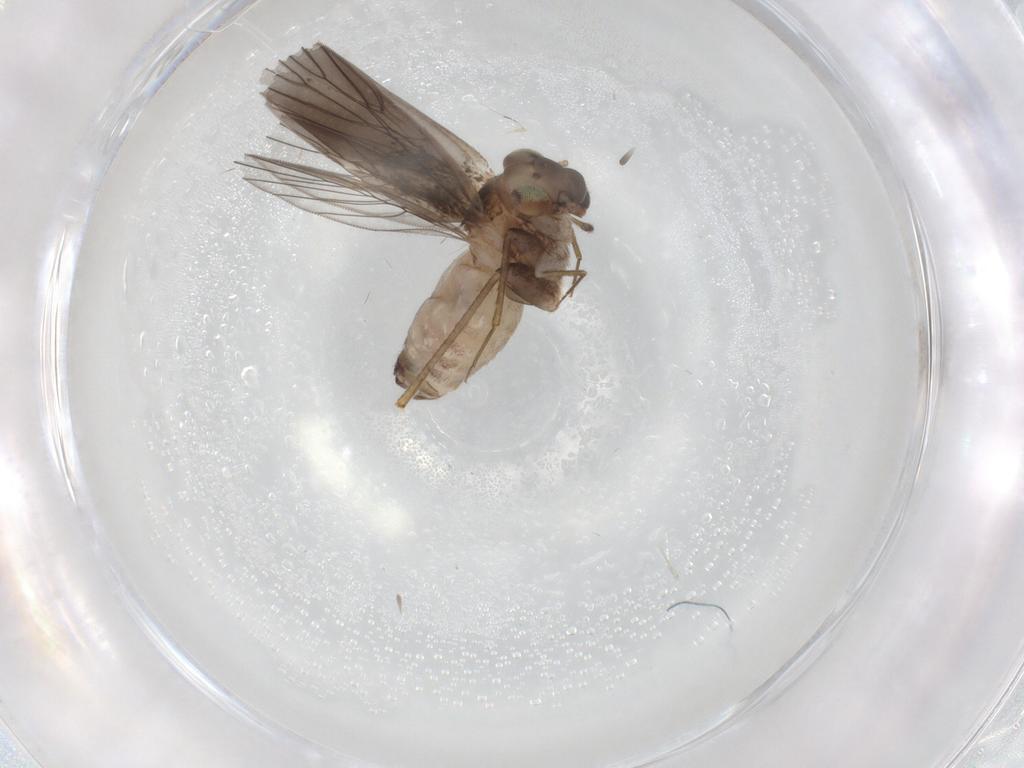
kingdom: Animalia
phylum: Arthropoda
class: Insecta
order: Psocodea
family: Lepidopsocidae
